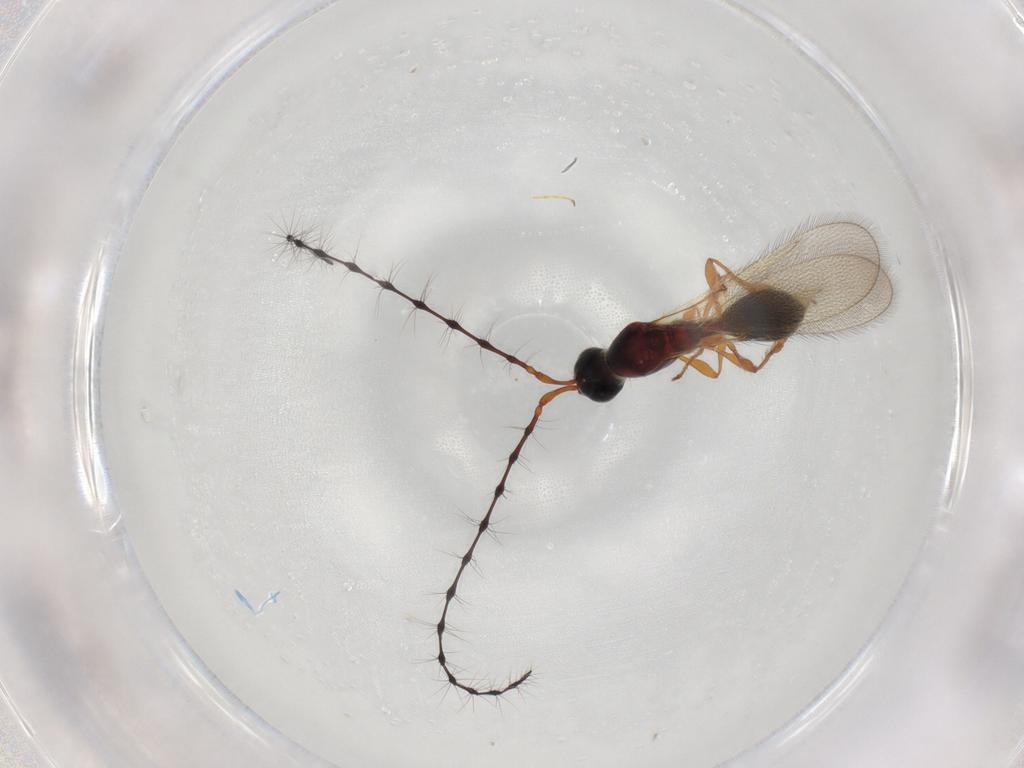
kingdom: Animalia
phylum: Arthropoda
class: Insecta
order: Hymenoptera
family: Diapriidae
